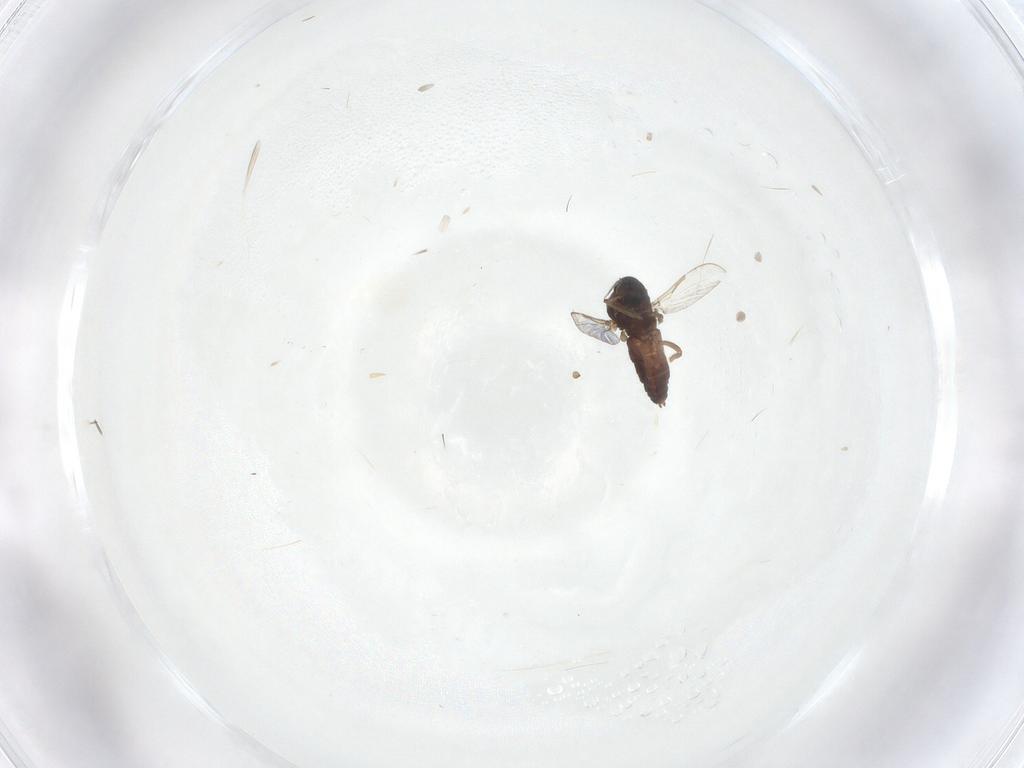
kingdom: Animalia
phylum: Arthropoda
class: Insecta
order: Diptera
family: Ceratopogonidae
